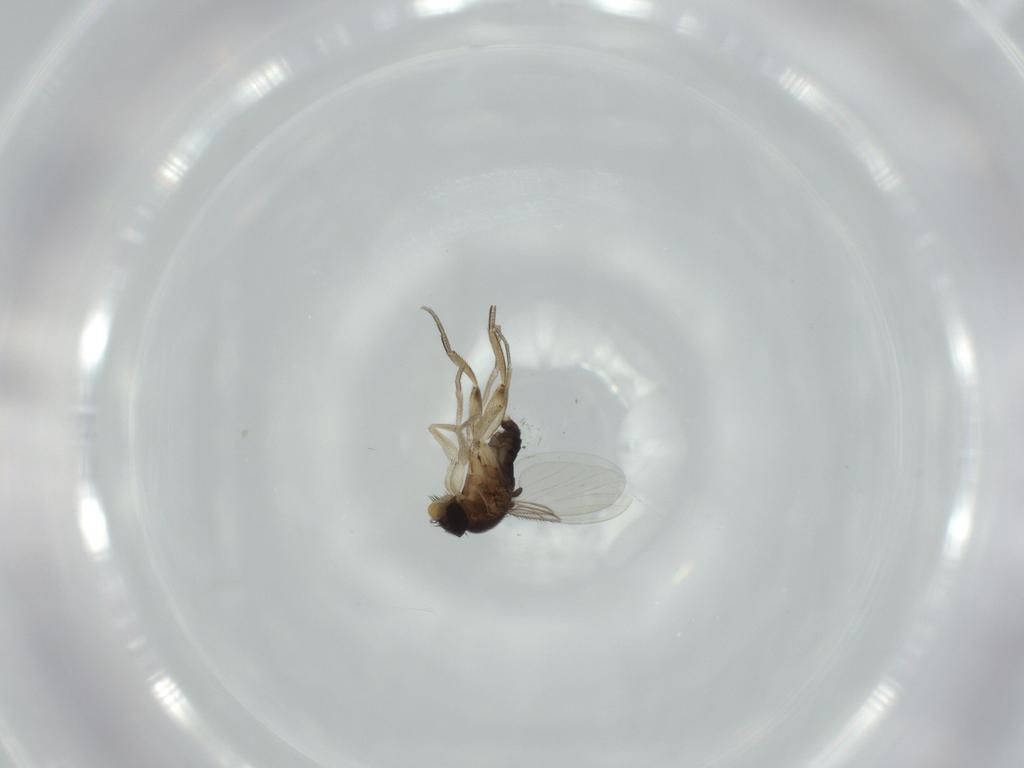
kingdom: Animalia
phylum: Arthropoda
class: Insecta
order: Diptera
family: Phoridae
